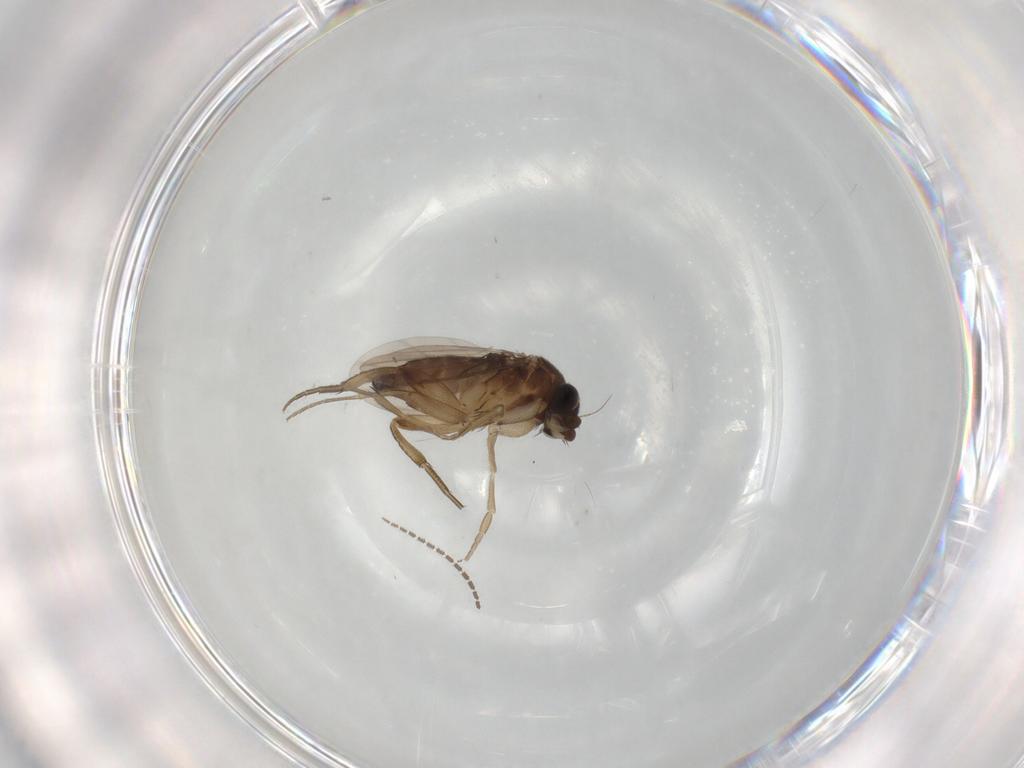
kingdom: Animalia
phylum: Arthropoda
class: Insecta
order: Diptera
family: Phoridae
